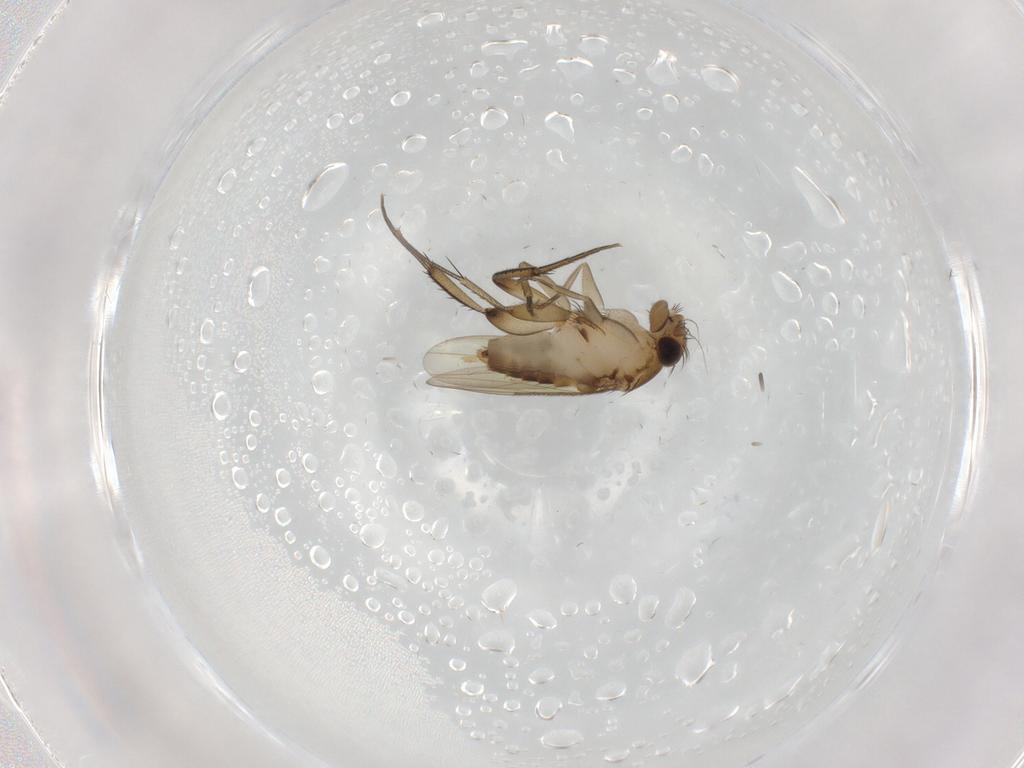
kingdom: Animalia
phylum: Arthropoda
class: Insecta
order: Diptera
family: Phoridae
